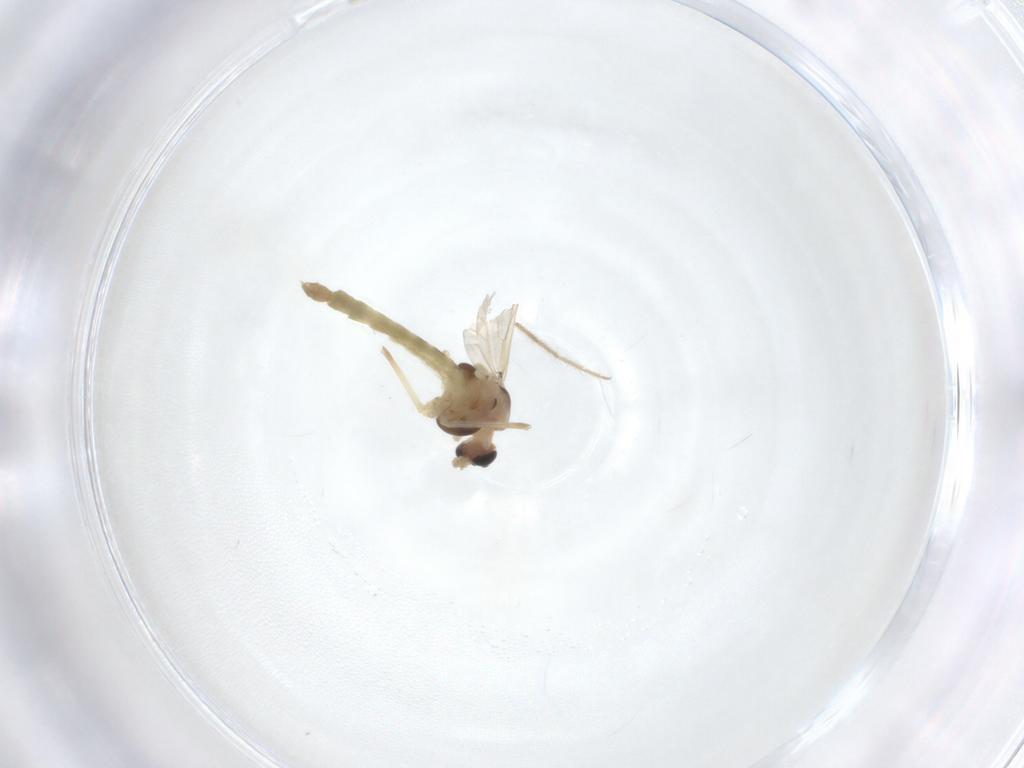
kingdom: Animalia
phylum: Arthropoda
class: Insecta
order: Diptera
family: Chironomidae
